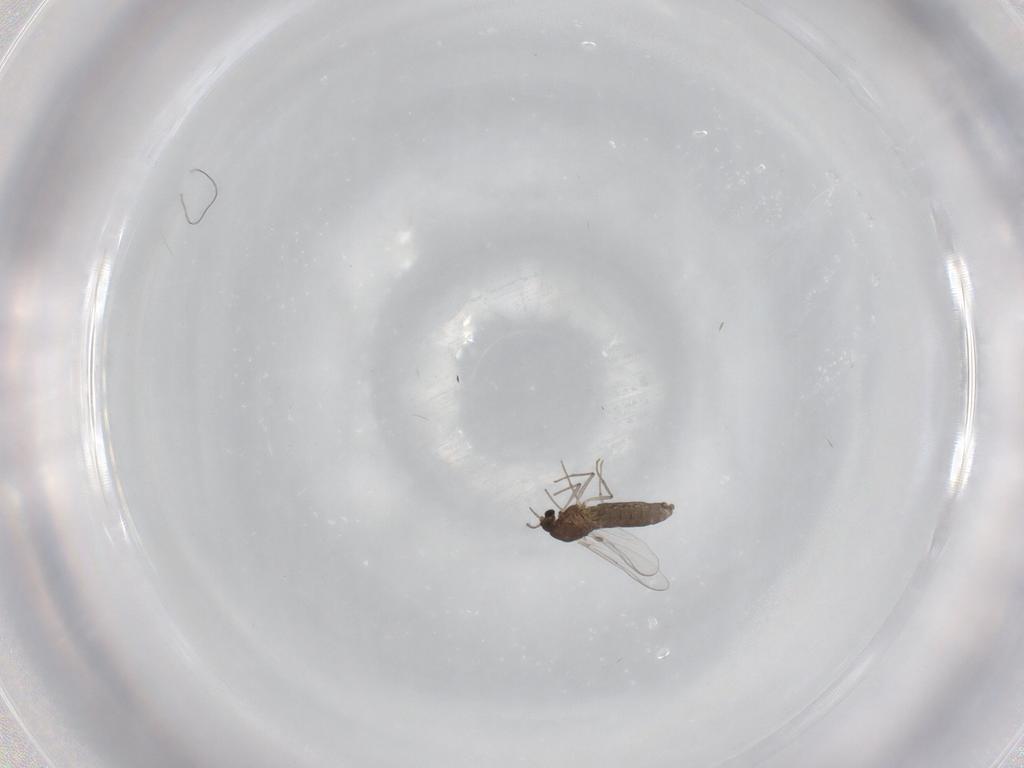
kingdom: Animalia
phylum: Arthropoda
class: Insecta
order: Diptera
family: Chironomidae
